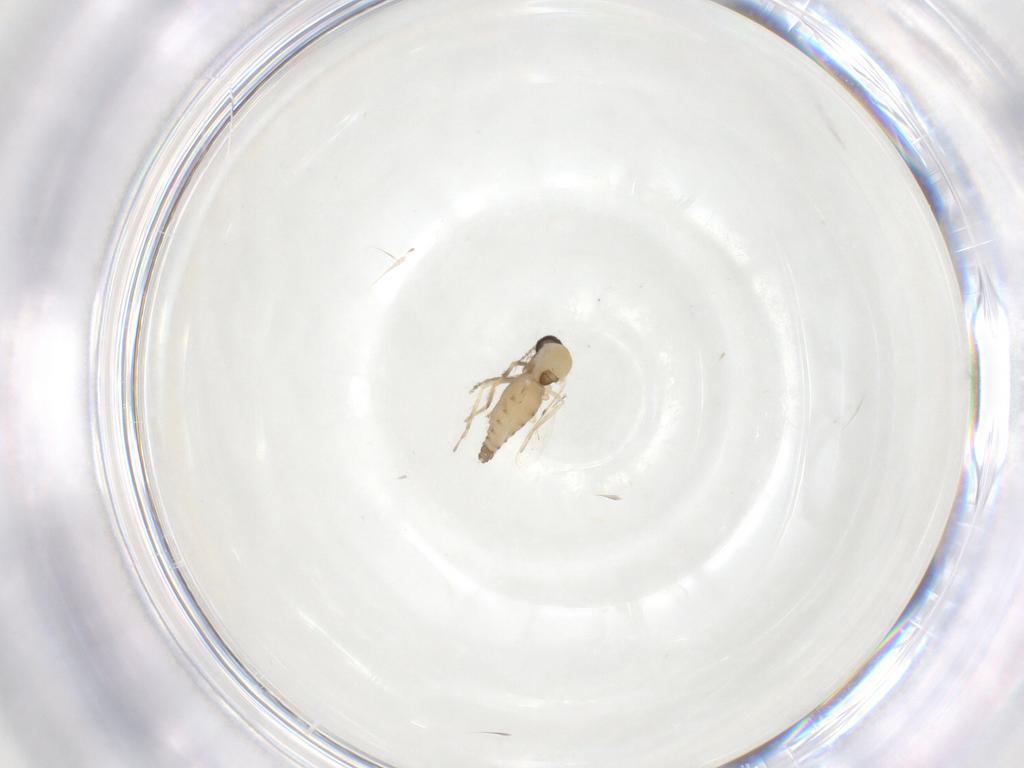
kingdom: Animalia
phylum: Arthropoda
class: Insecta
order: Diptera
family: Ceratopogonidae
